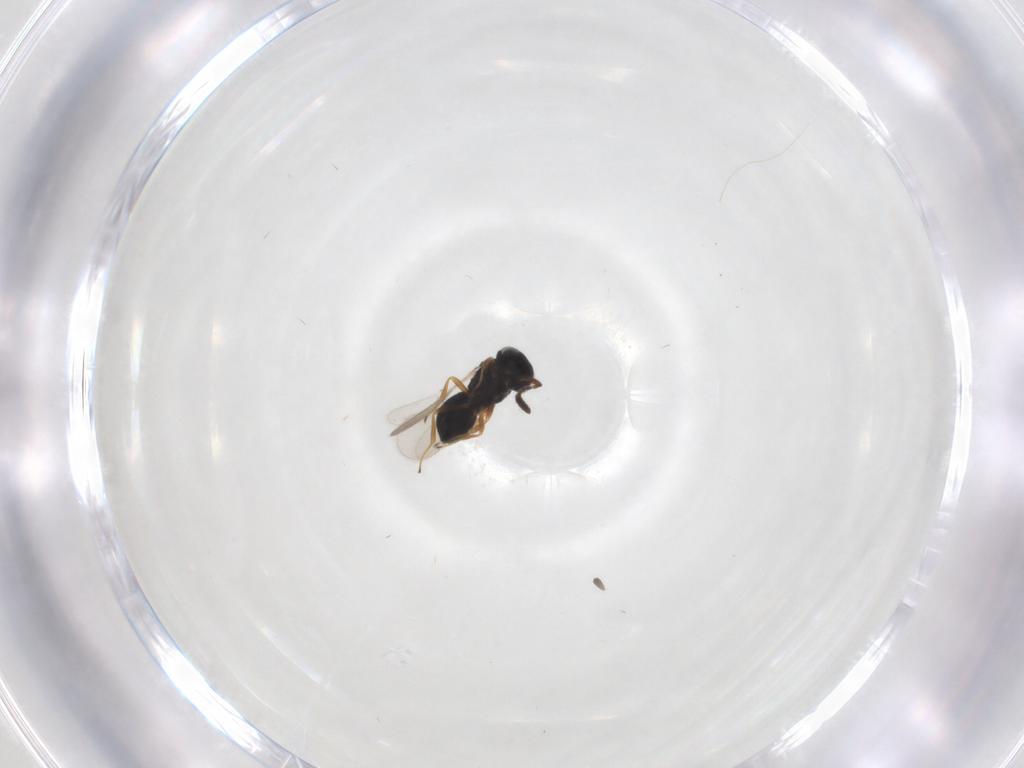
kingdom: Animalia
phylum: Arthropoda
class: Insecta
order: Hymenoptera
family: Scelionidae
